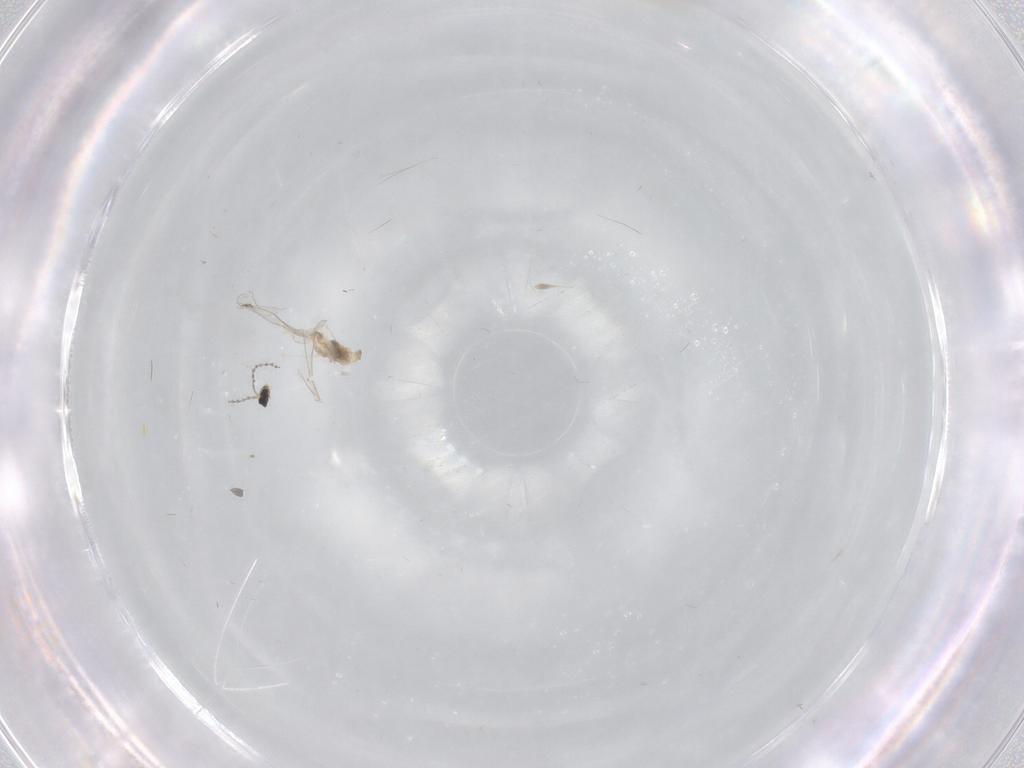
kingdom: Animalia
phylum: Arthropoda
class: Insecta
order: Diptera
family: Cecidomyiidae
